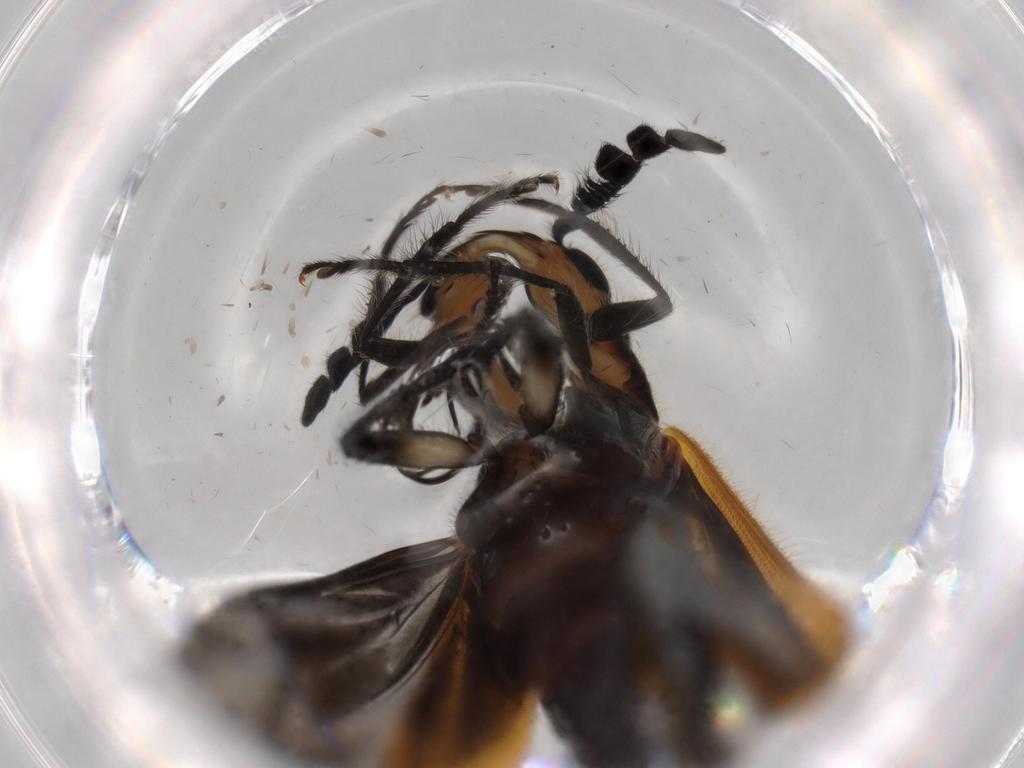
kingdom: Animalia
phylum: Arthropoda
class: Insecta
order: Coleoptera
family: Cleridae
